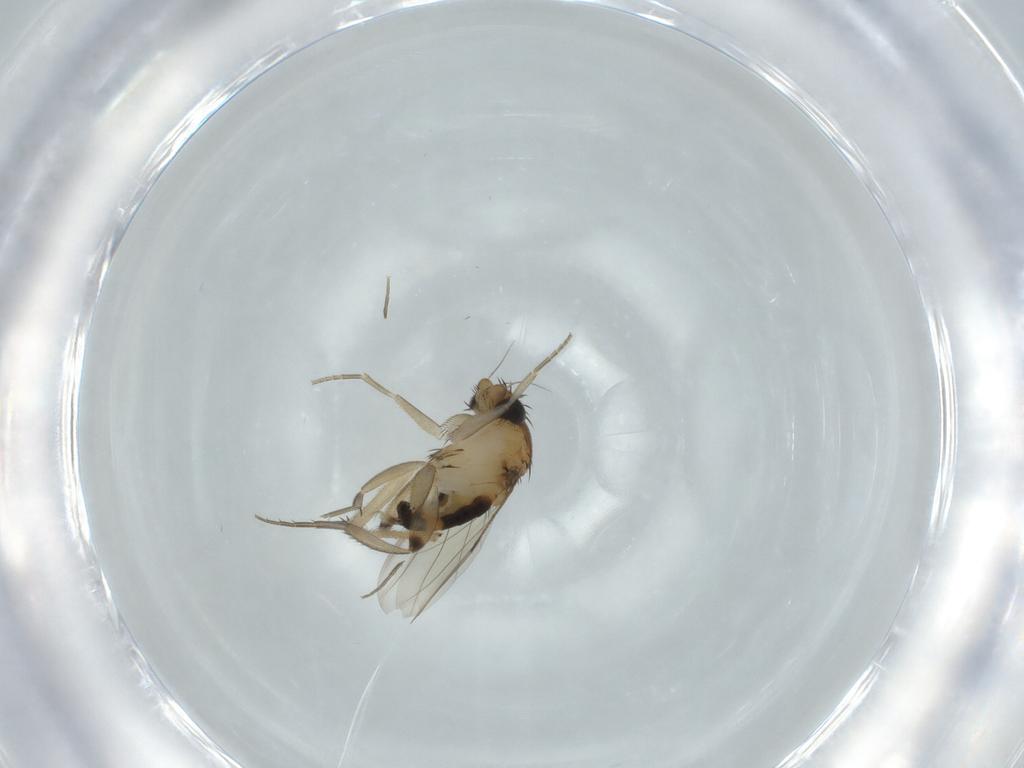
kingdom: Animalia
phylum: Arthropoda
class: Insecta
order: Diptera
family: Phoridae
